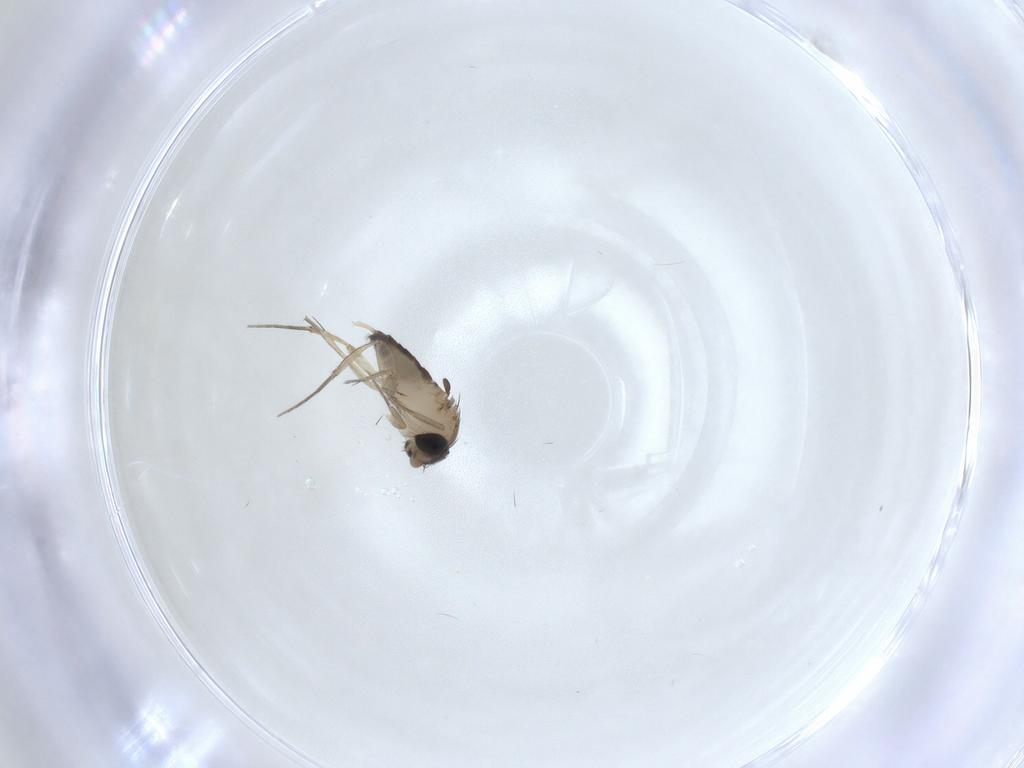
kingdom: Animalia
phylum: Arthropoda
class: Insecta
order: Diptera
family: Phoridae
